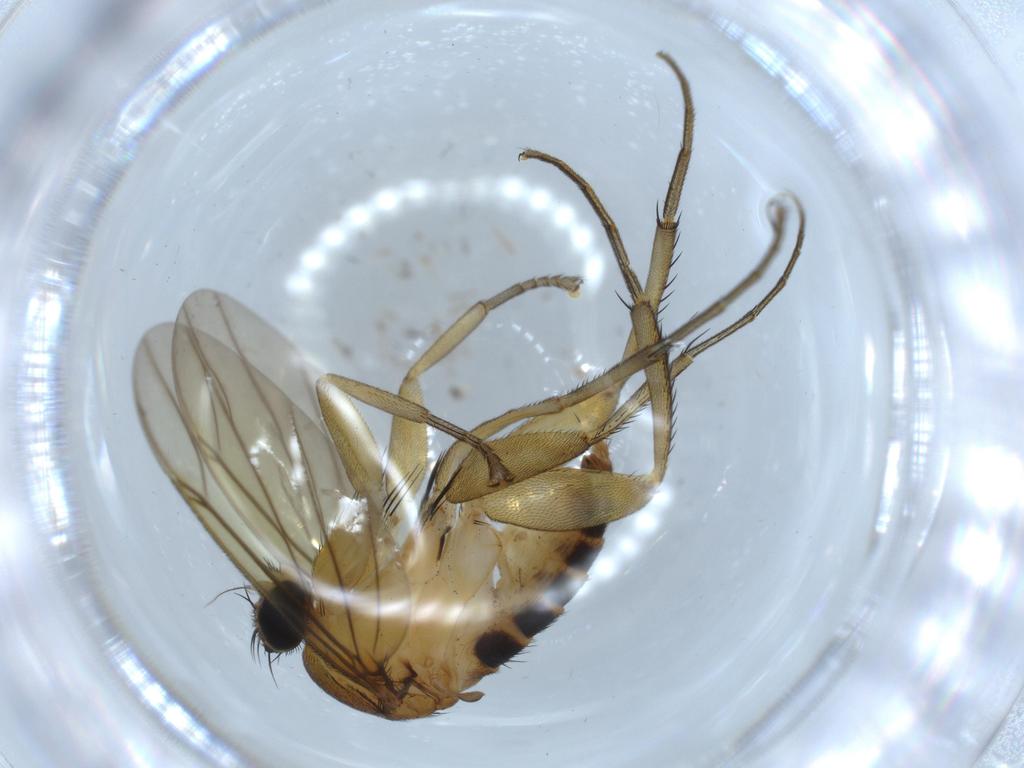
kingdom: Animalia
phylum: Arthropoda
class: Insecta
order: Diptera
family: Phoridae
